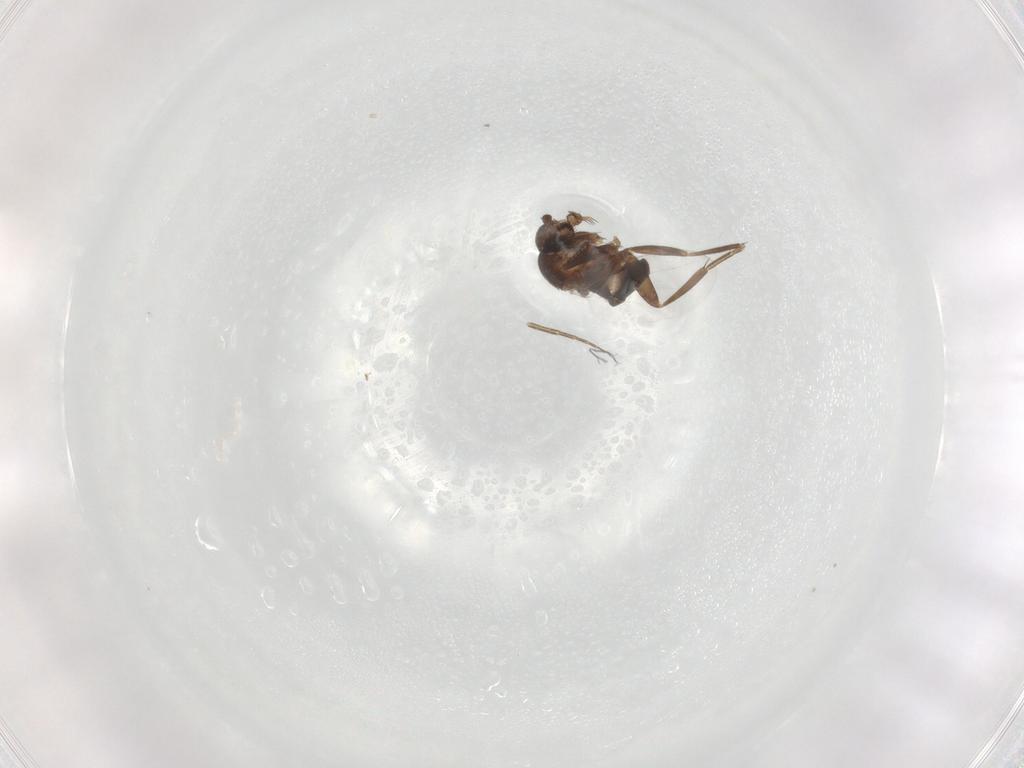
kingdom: Animalia
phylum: Arthropoda
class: Insecta
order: Diptera
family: Phoridae
